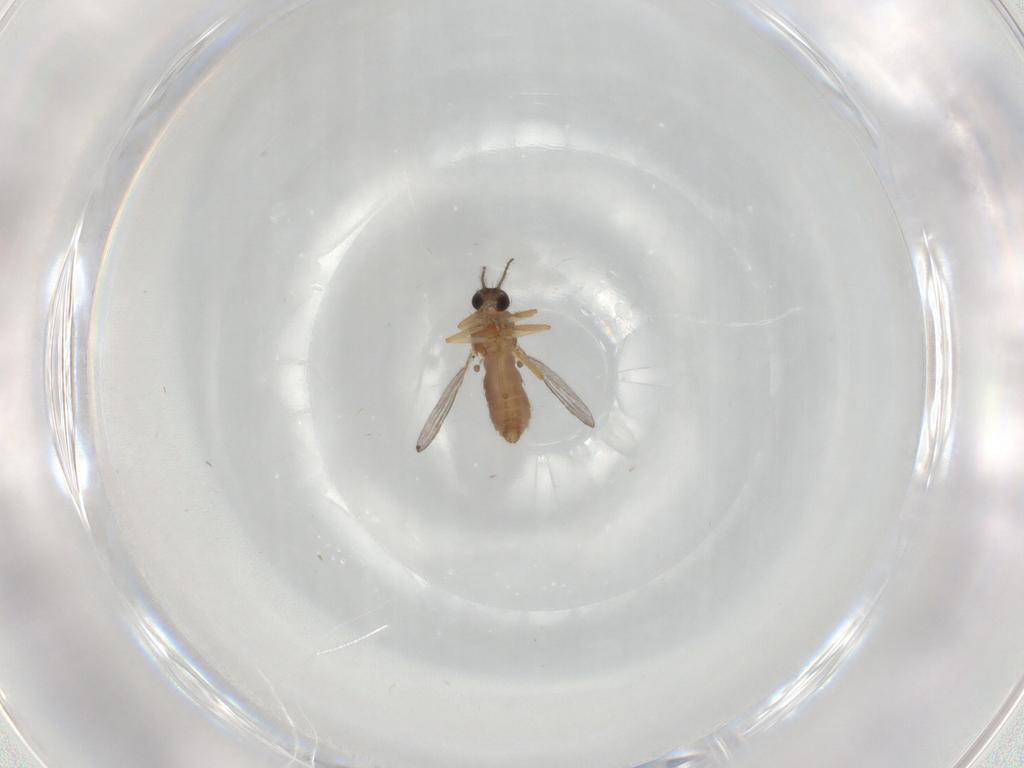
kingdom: Animalia
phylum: Arthropoda
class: Insecta
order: Diptera
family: Ceratopogonidae
